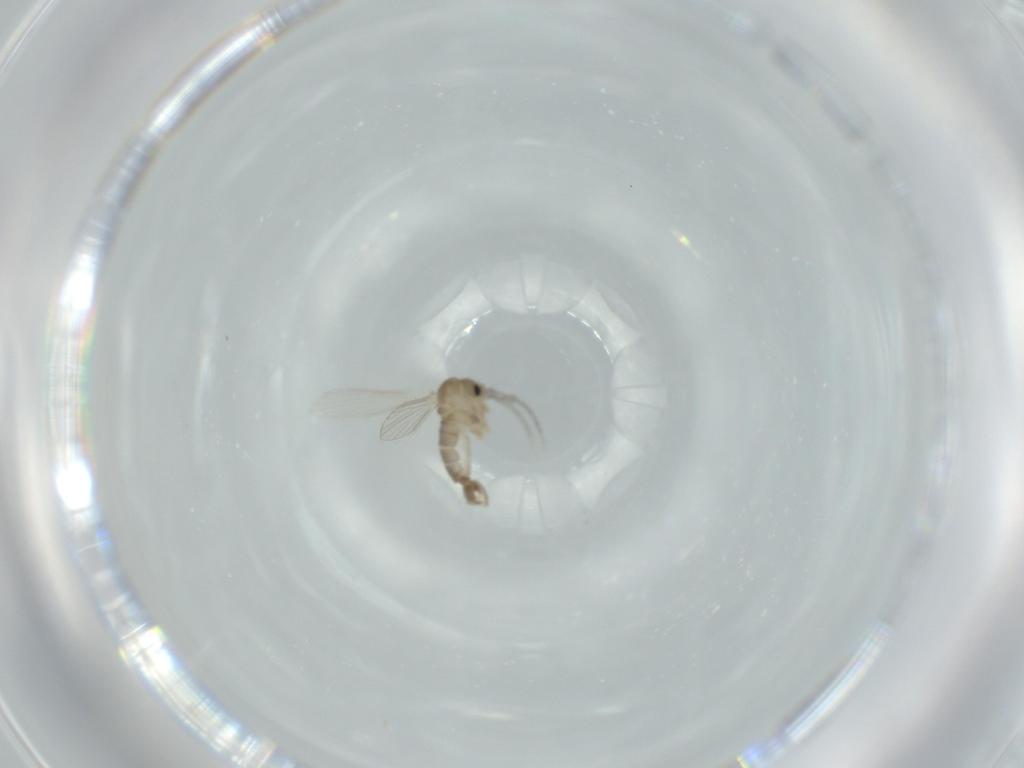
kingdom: Animalia
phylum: Arthropoda
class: Insecta
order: Diptera
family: Psychodidae
